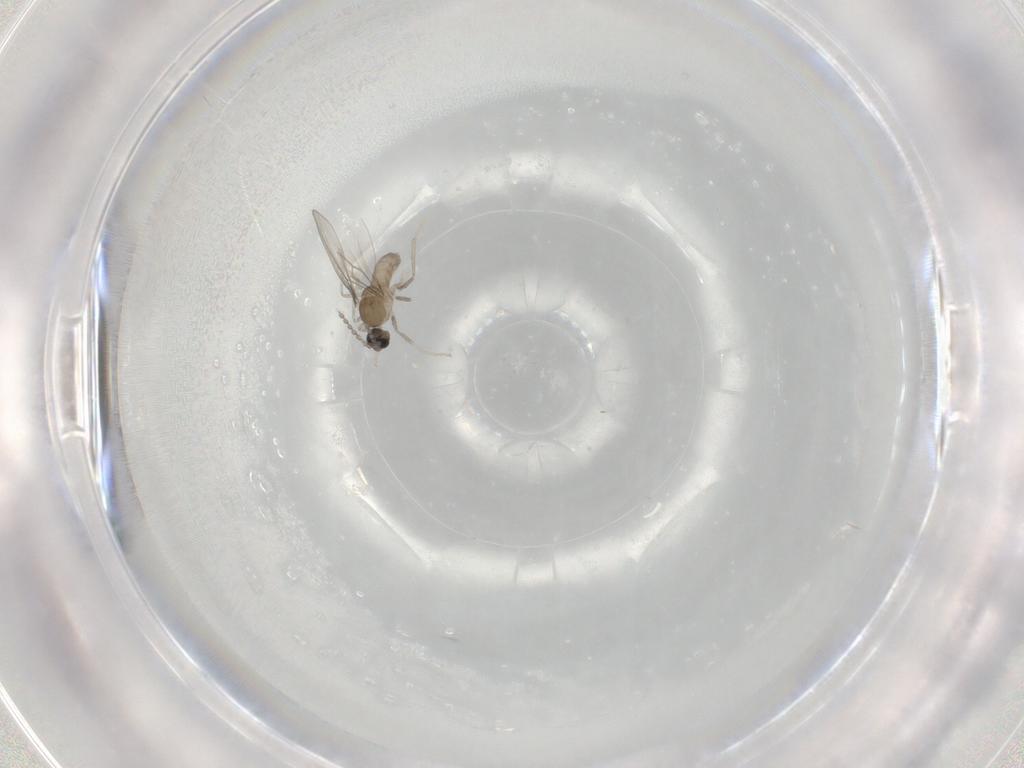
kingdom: Animalia
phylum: Arthropoda
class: Insecta
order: Diptera
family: Cecidomyiidae
